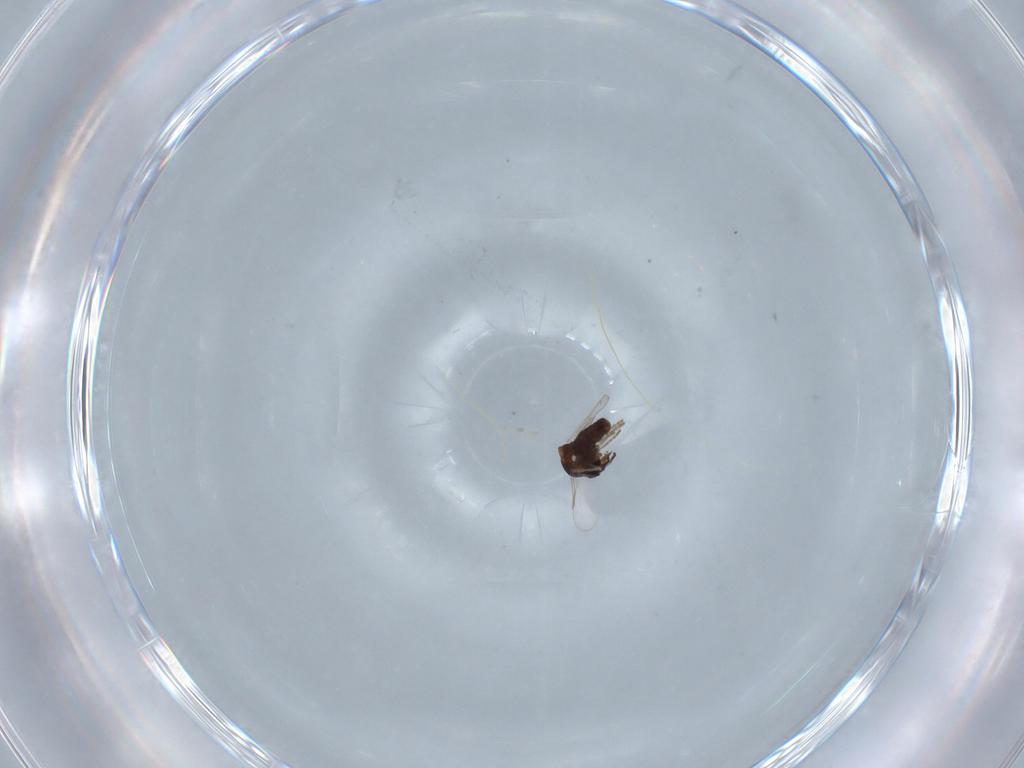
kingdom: Animalia
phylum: Arthropoda
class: Insecta
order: Diptera
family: Ceratopogonidae
